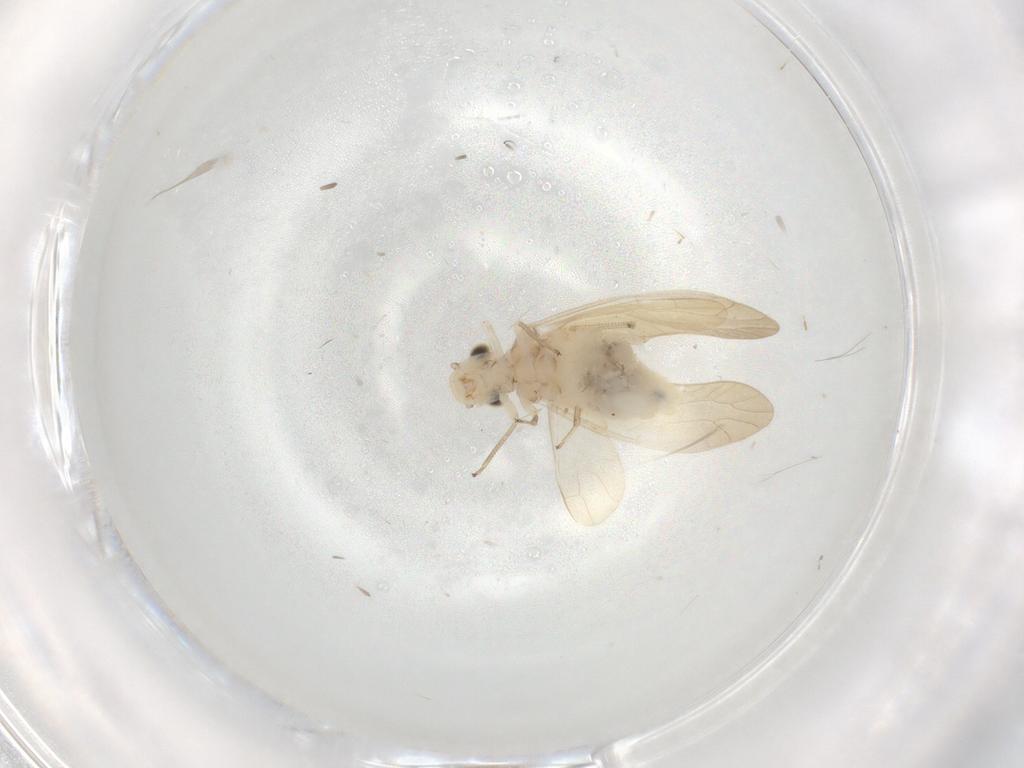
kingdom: Animalia
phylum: Arthropoda
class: Insecta
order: Psocodea
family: Caeciliusidae
